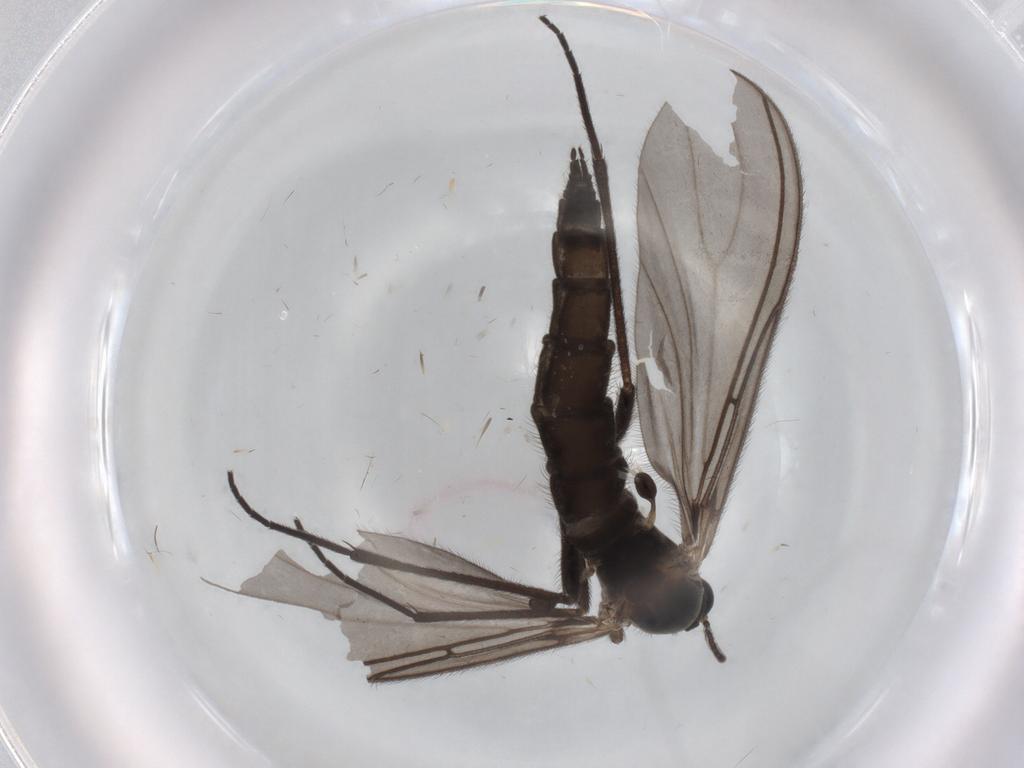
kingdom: Animalia
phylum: Arthropoda
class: Insecta
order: Diptera
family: Sciaridae
